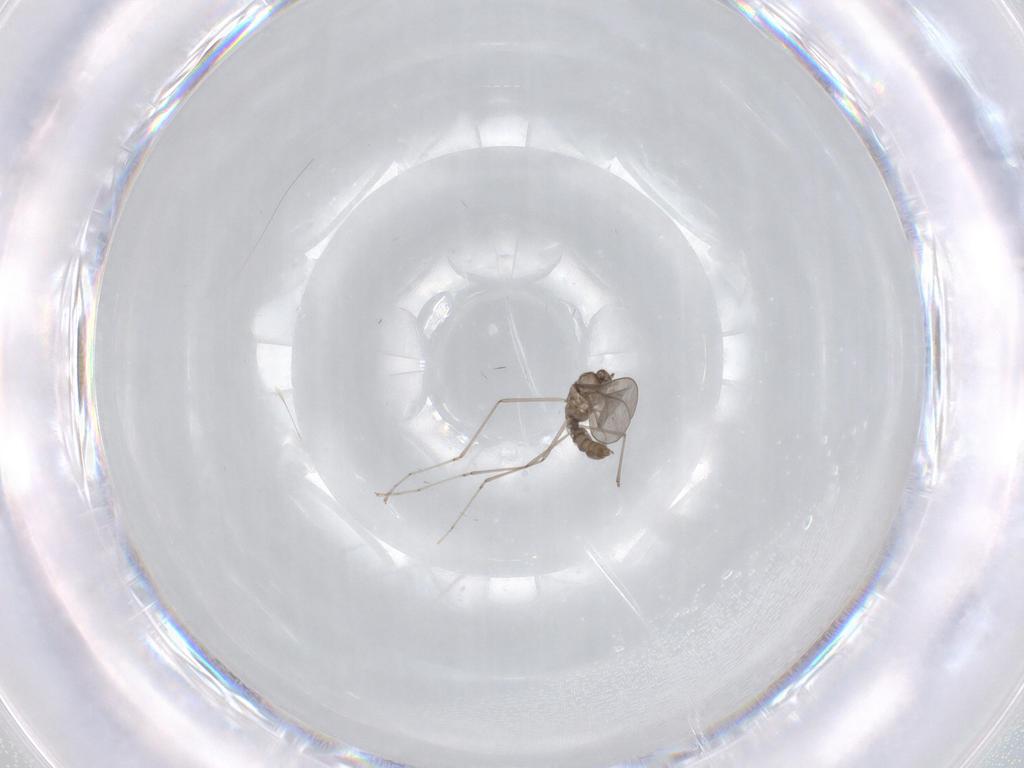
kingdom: Animalia
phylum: Arthropoda
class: Insecta
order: Diptera
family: Cecidomyiidae
